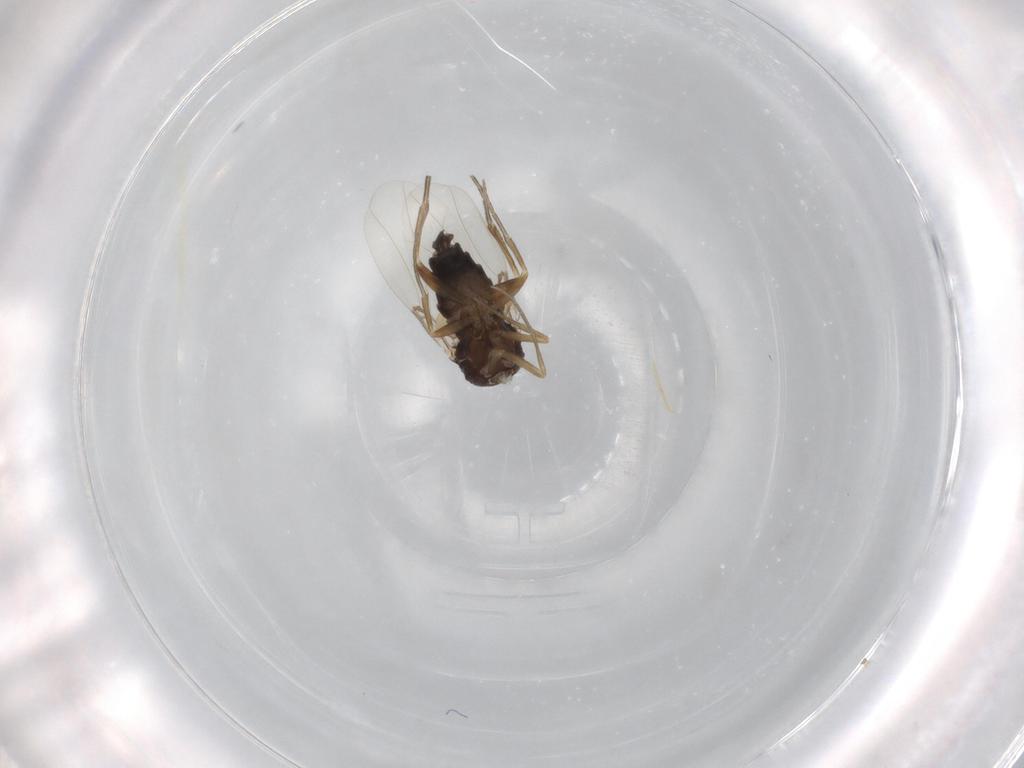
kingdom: Animalia
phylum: Arthropoda
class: Insecta
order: Diptera
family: Phoridae
